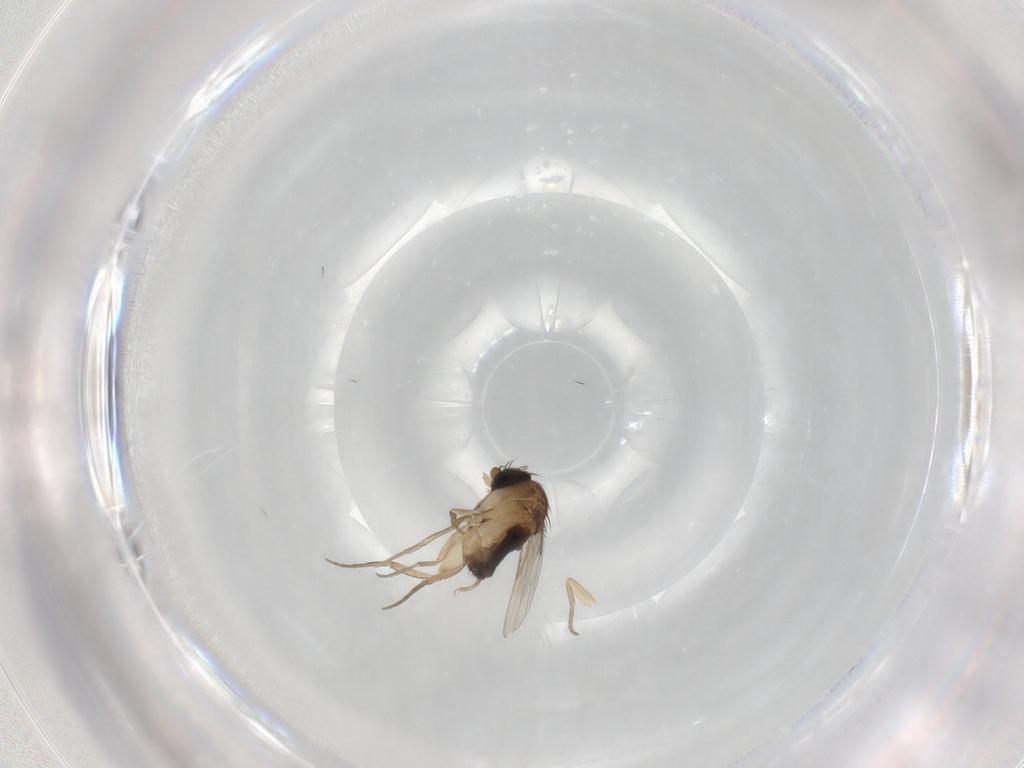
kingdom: Animalia
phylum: Arthropoda
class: Insecta
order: Diptera
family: Phoridae
